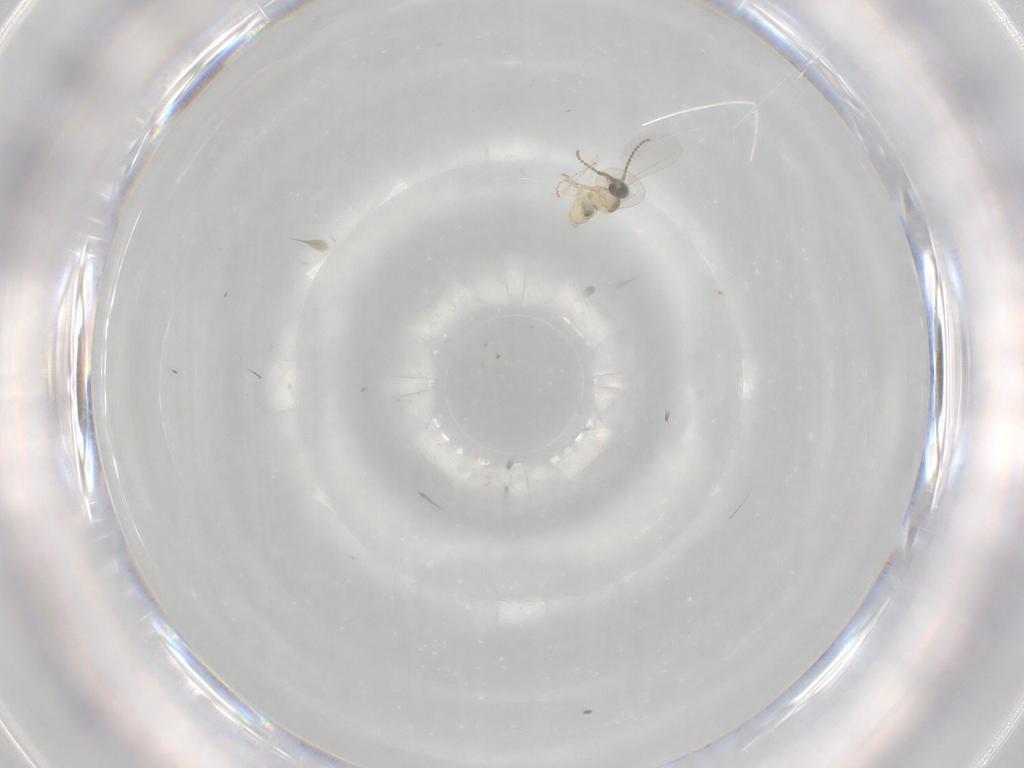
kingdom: Animalia
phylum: Arthropoda
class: Insecta
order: Diptera
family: Cecidomyiidae
